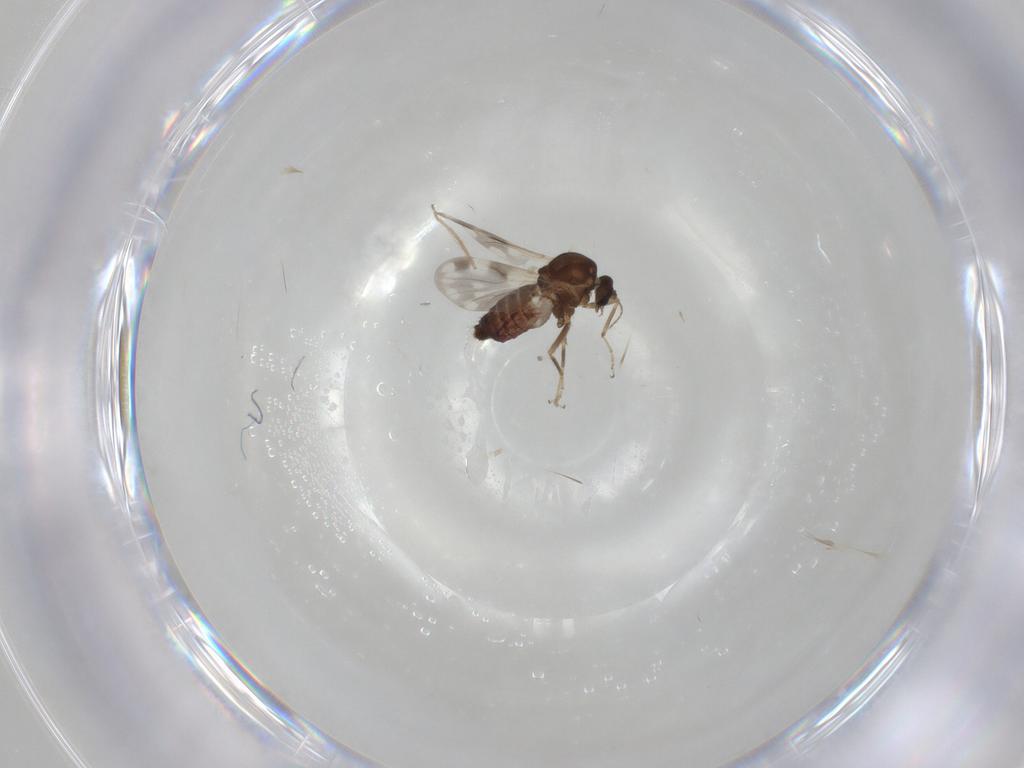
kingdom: Animalia
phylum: Arthropoda
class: Insecta
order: Diptera
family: Ceratopogonidae
